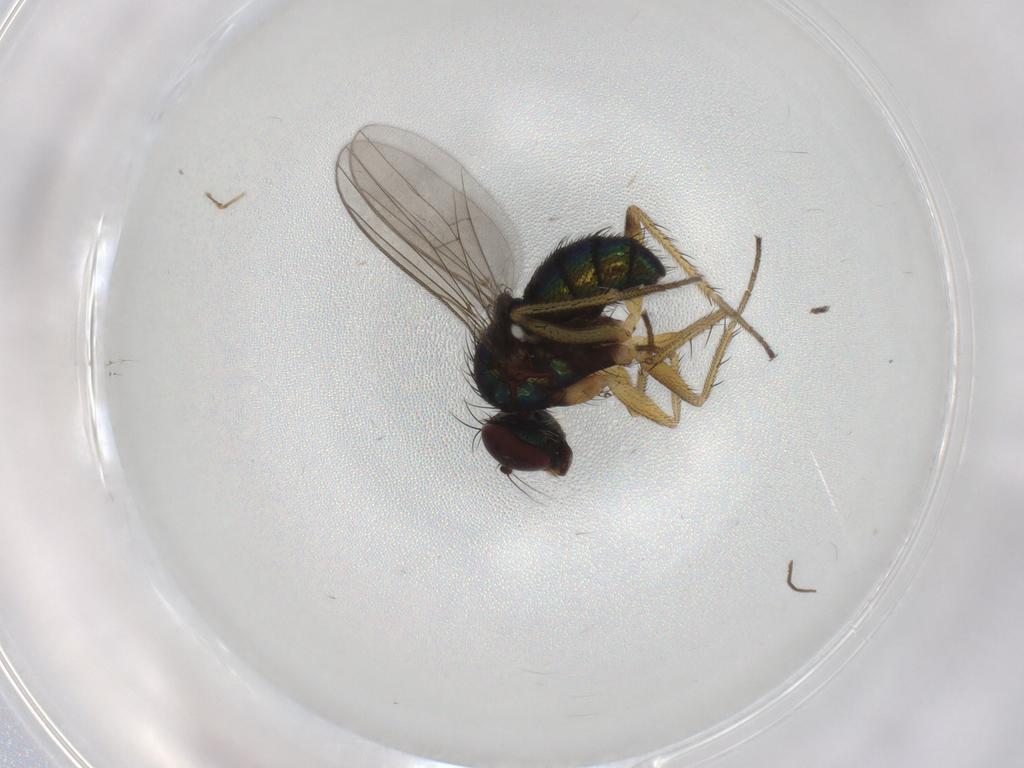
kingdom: Animalia
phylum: Arthropoda
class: Insecta
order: Diptera
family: Dolichopodidae
